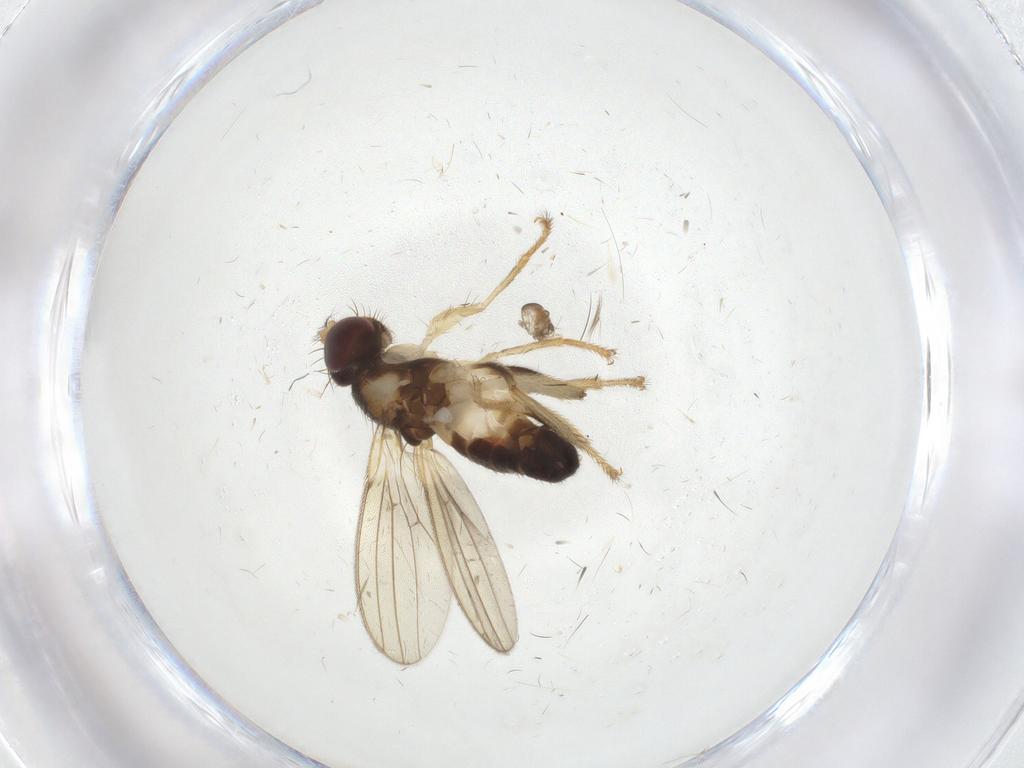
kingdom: Animalia
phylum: Arthropoda
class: Insecta
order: Diptera
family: Periscelididae
